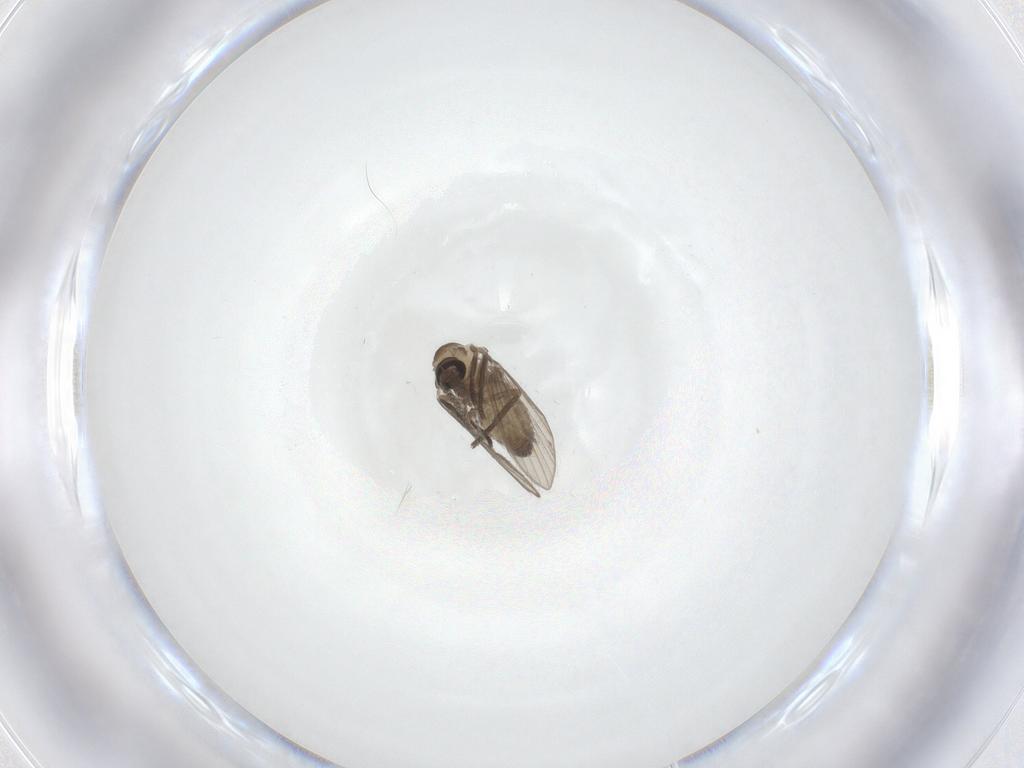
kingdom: Animalia
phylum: Arthropoda
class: Insecta
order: Diptera
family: Psychodidae
